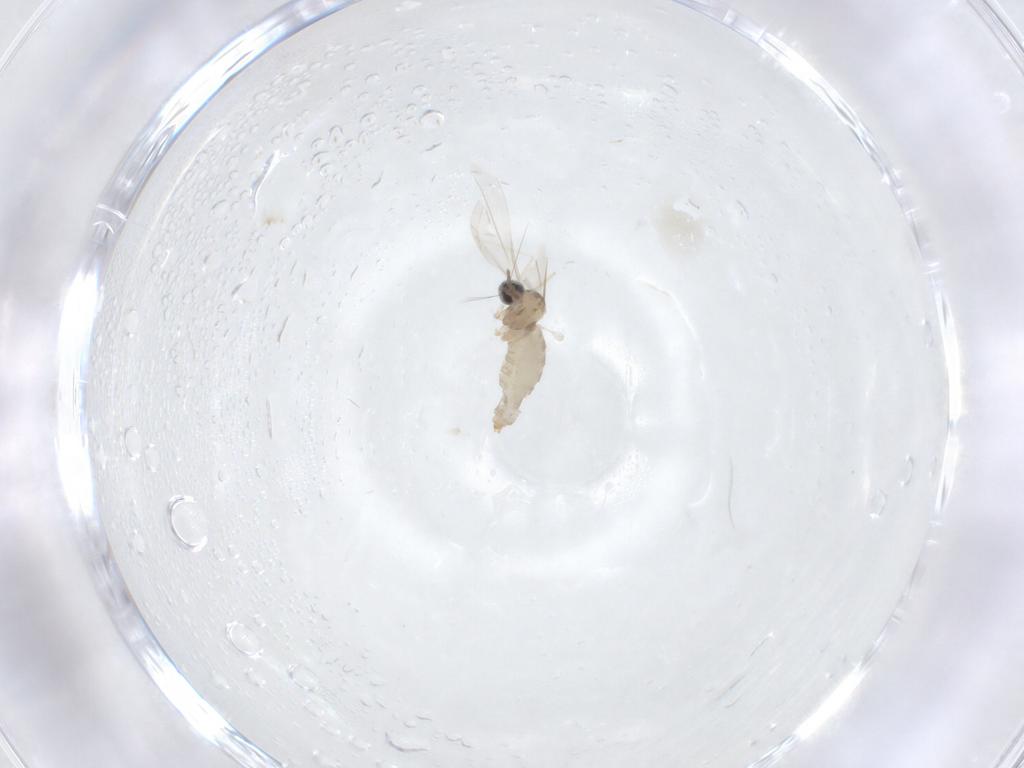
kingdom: Animalia
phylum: Arthropoda
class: Insecta
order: Diptera
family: Cecidomyiidae
